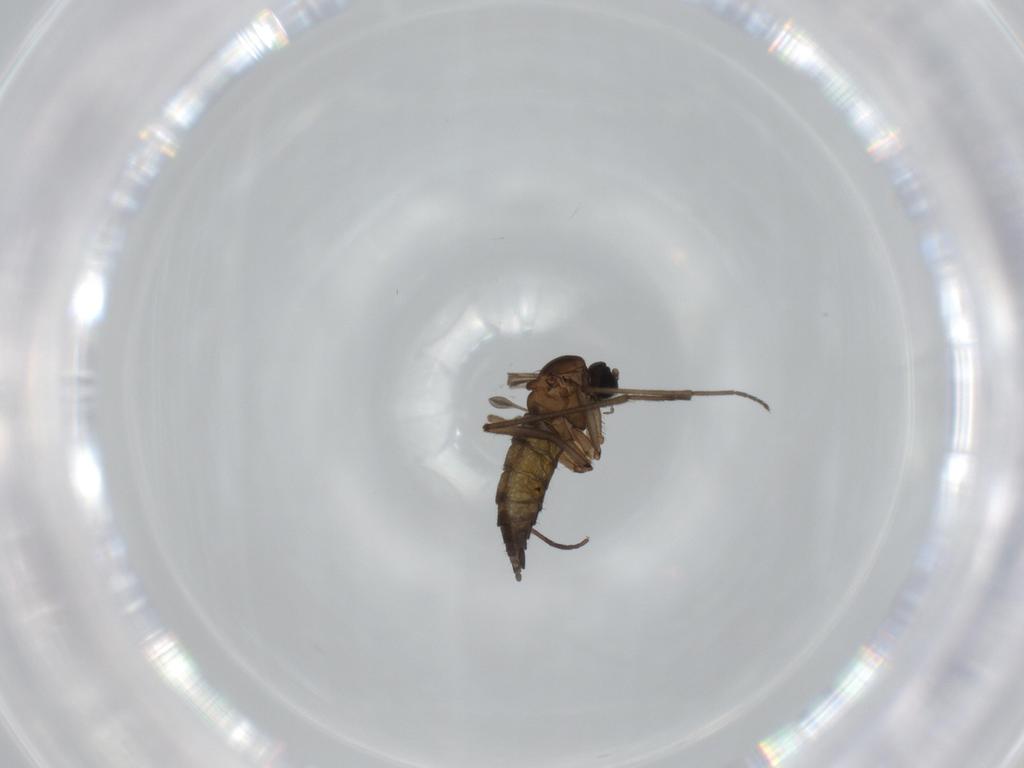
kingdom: Animalia
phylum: Arthropoda
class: Insecta
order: Diptera
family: Sciaridae
